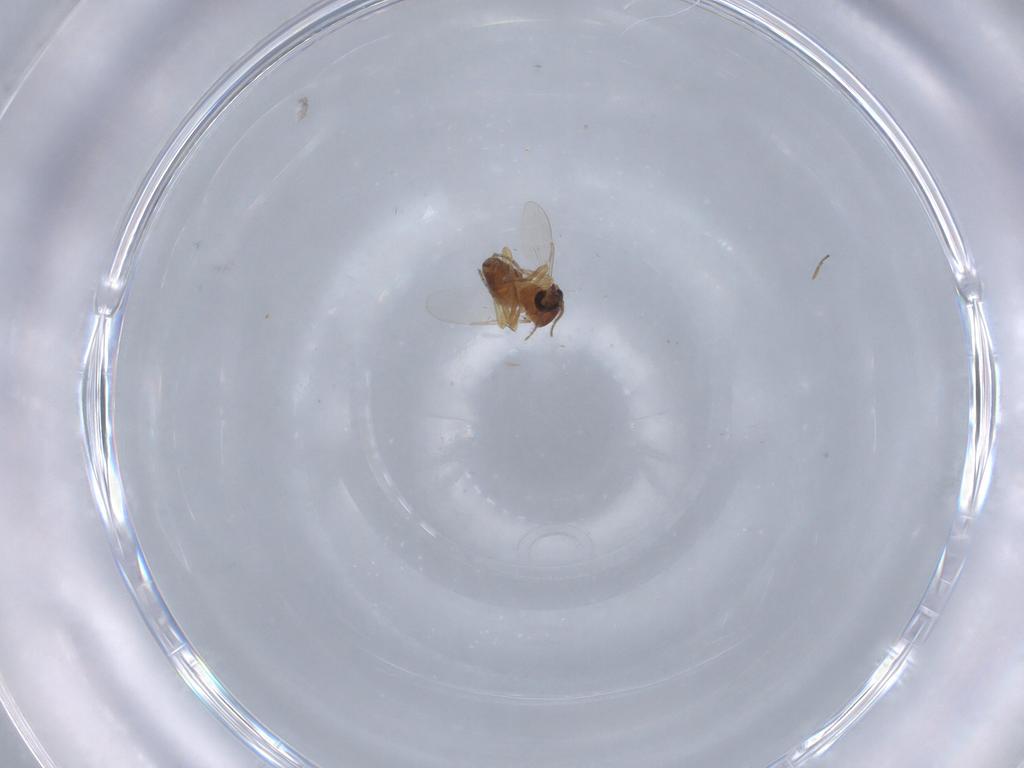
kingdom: Animalia
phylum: Arthropoda
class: Insecta
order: Diptera
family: Ceratopogonidae
